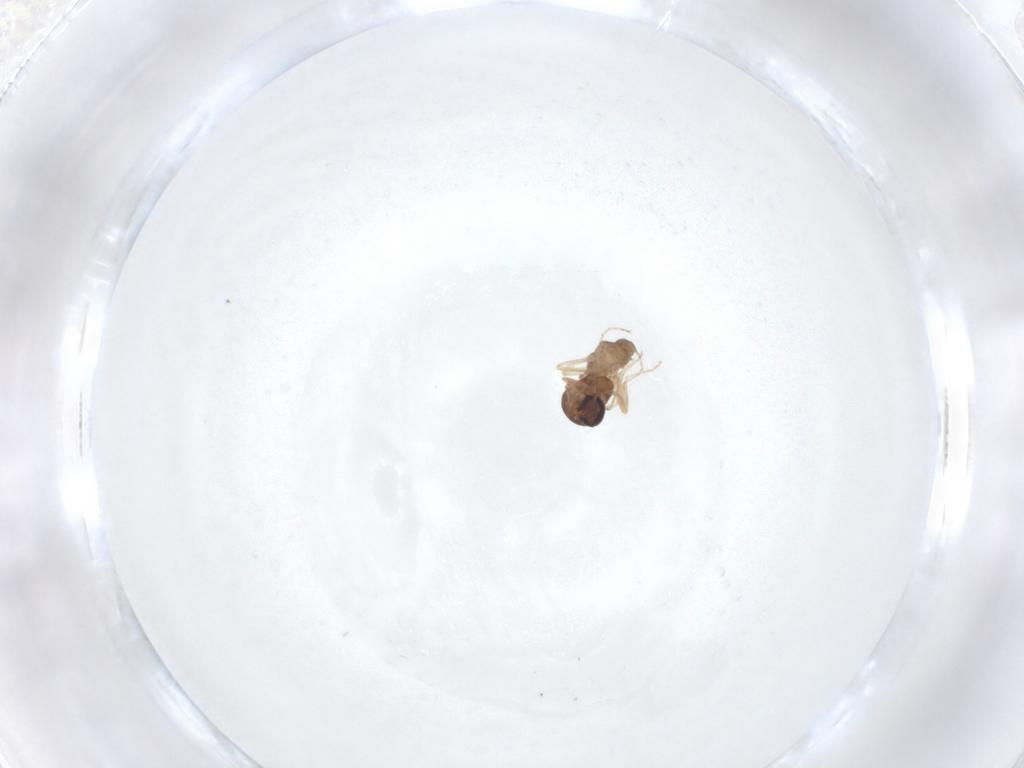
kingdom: Animalia
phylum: Arthropoda
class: Insecta
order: Diptera
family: Ceratopogonidae
